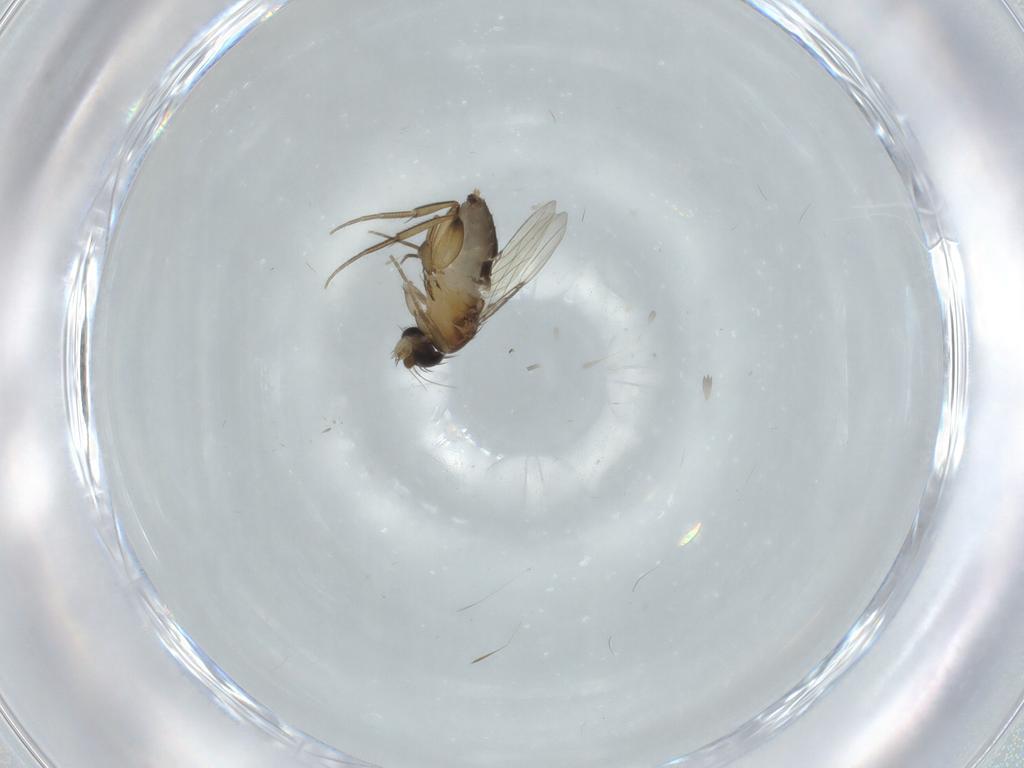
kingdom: Animalia
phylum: Arthropoda
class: Insecta
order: Diptera
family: Phoridae
